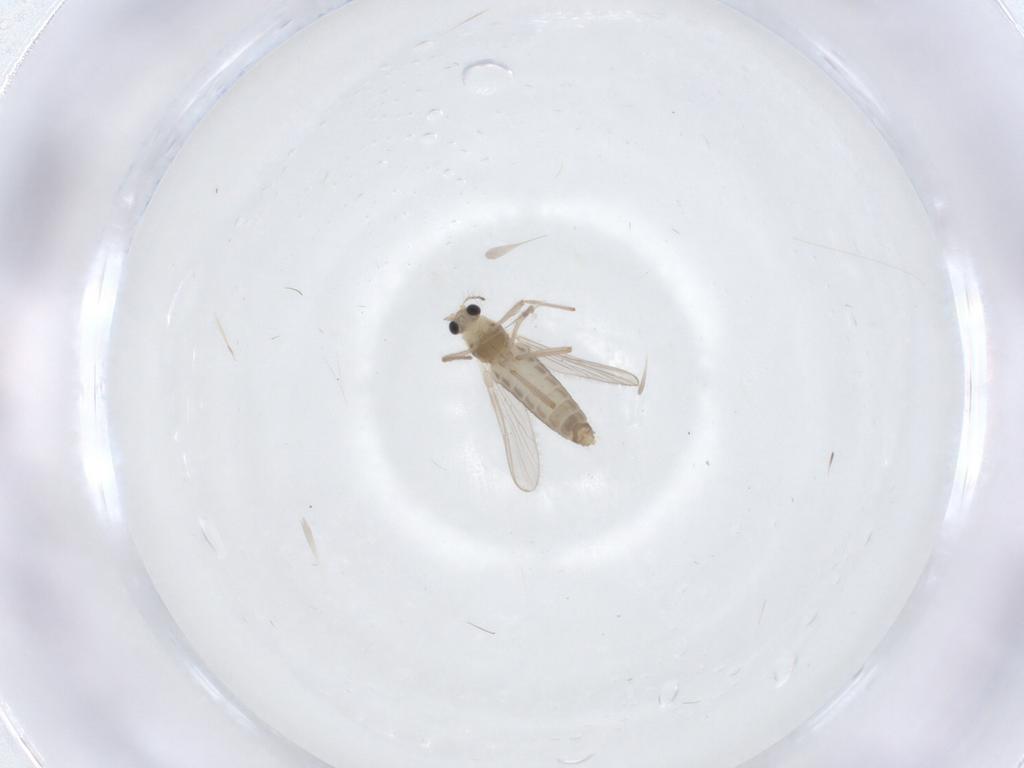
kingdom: Animalia
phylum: Arthropoda
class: Insecta
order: Diptera
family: Chironomidae
